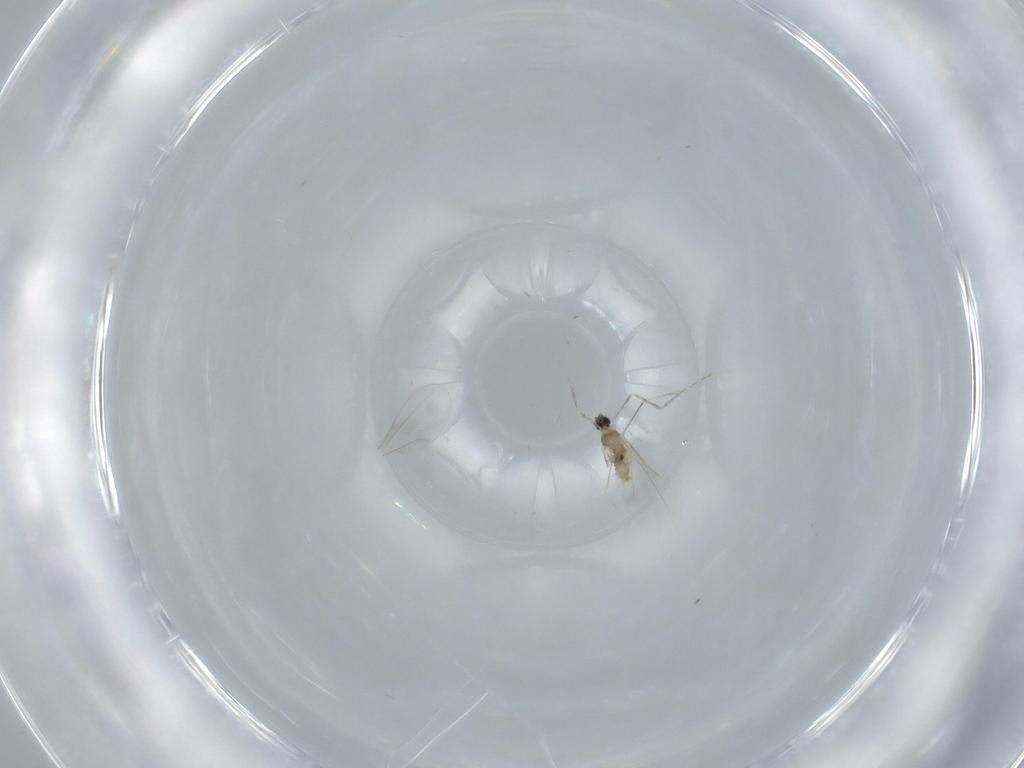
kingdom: Animalia
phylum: Arthropoda
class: Insecta
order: Diptera
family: Cecidomyiidae
